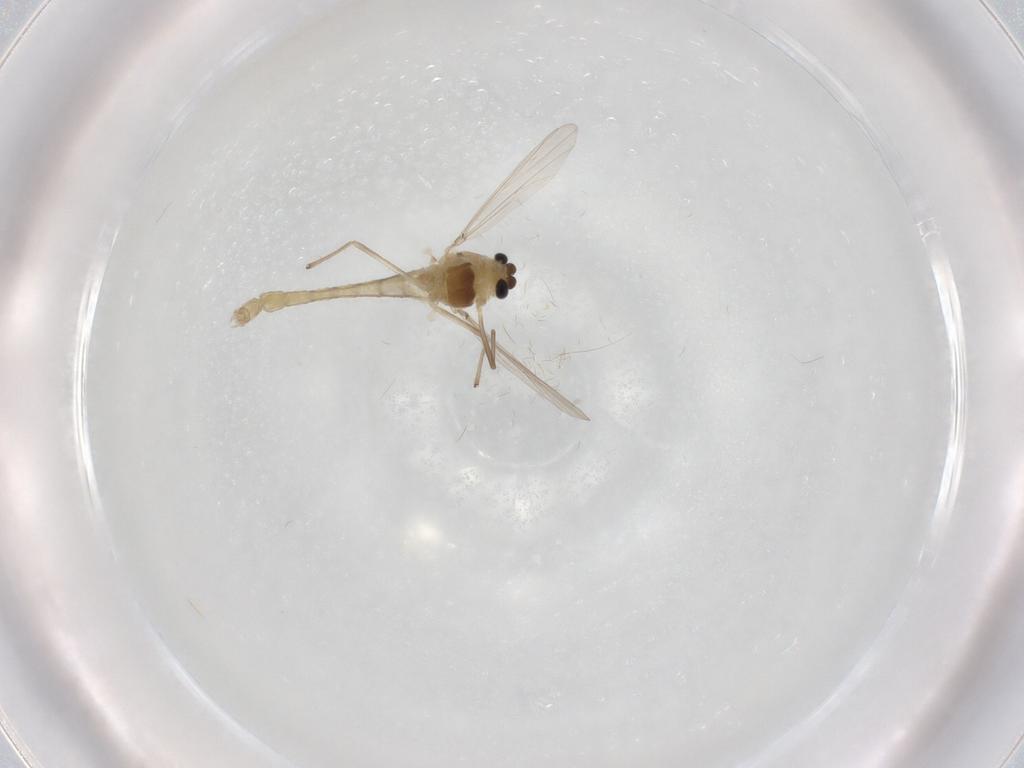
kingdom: Animalia
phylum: Arthropoda
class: Insecta
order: Diptera
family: Chironomidae
